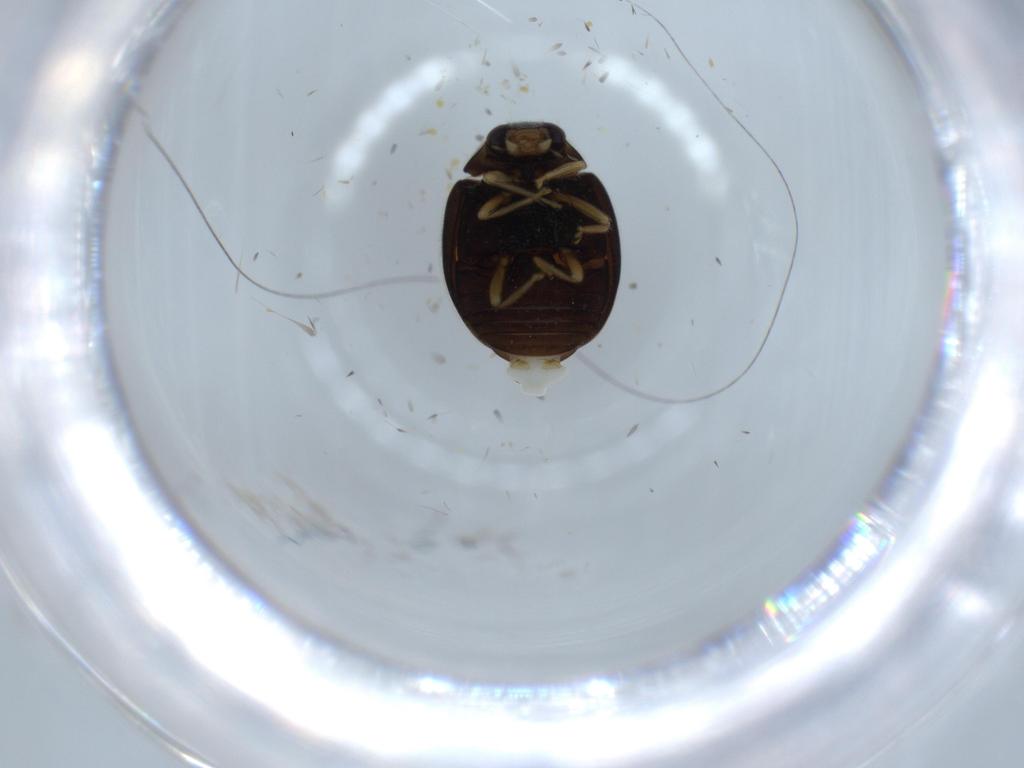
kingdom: Animalia
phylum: Arthropoda
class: Insecta
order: Coleoptera
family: Coccinellidae
